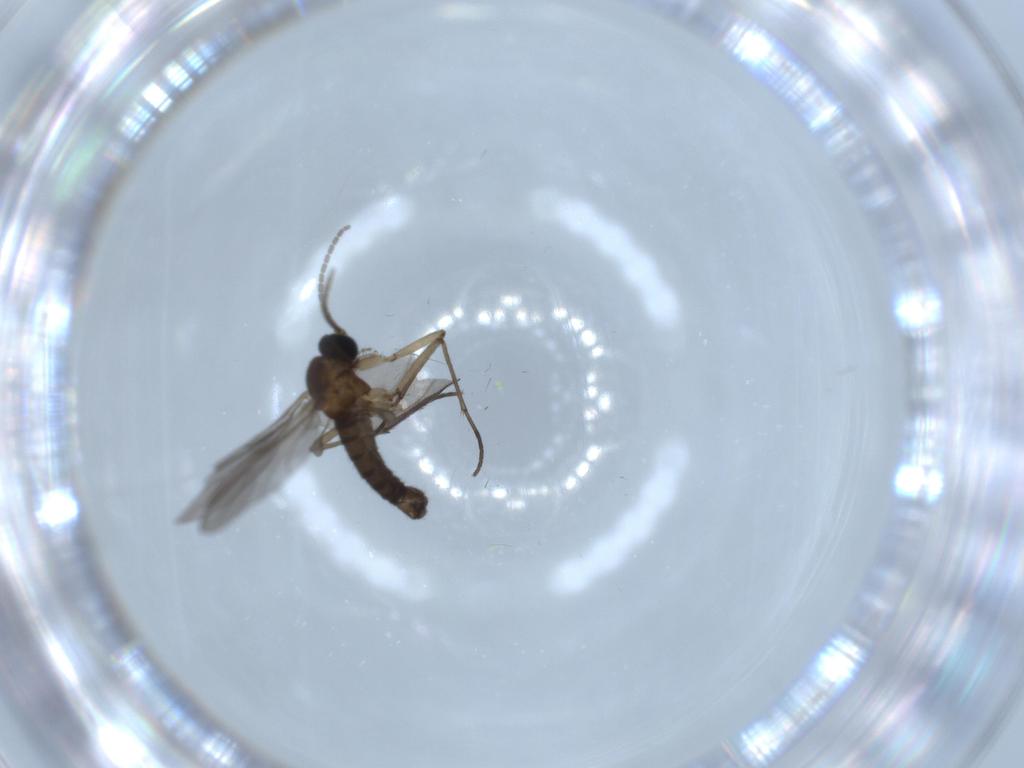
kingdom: Animalia
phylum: Arthropoda
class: Insecta
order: Diptera
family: Sciaridae
